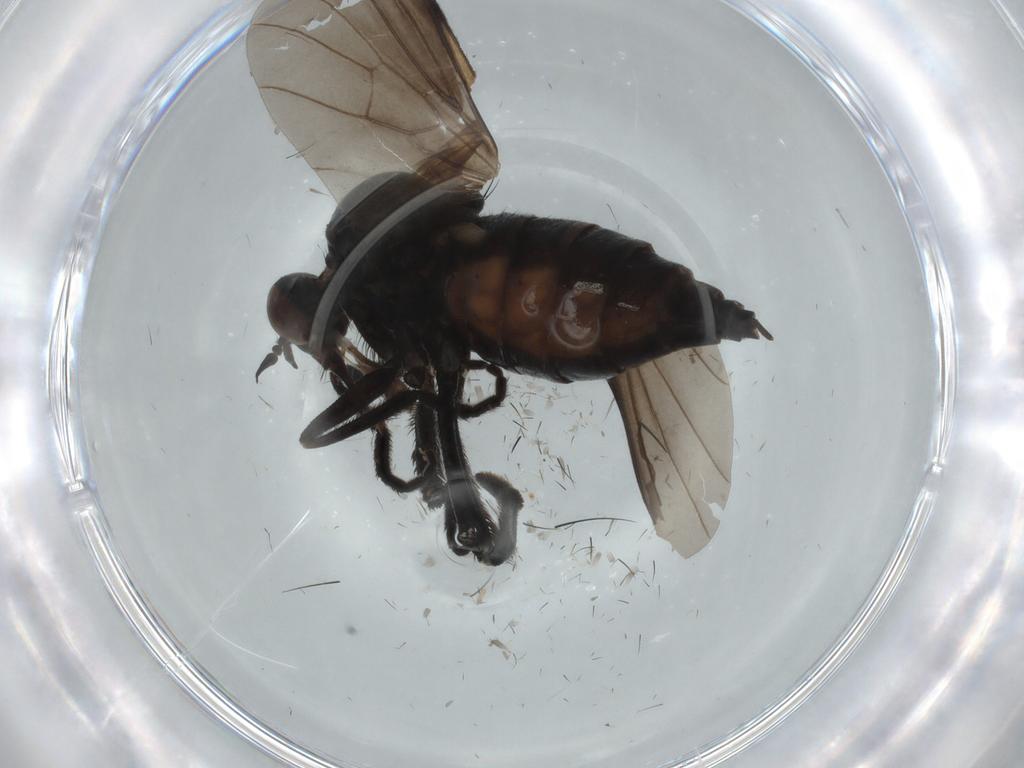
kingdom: Animalia
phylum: Arthropoda
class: Insecta
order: Diptera
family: Empididae
